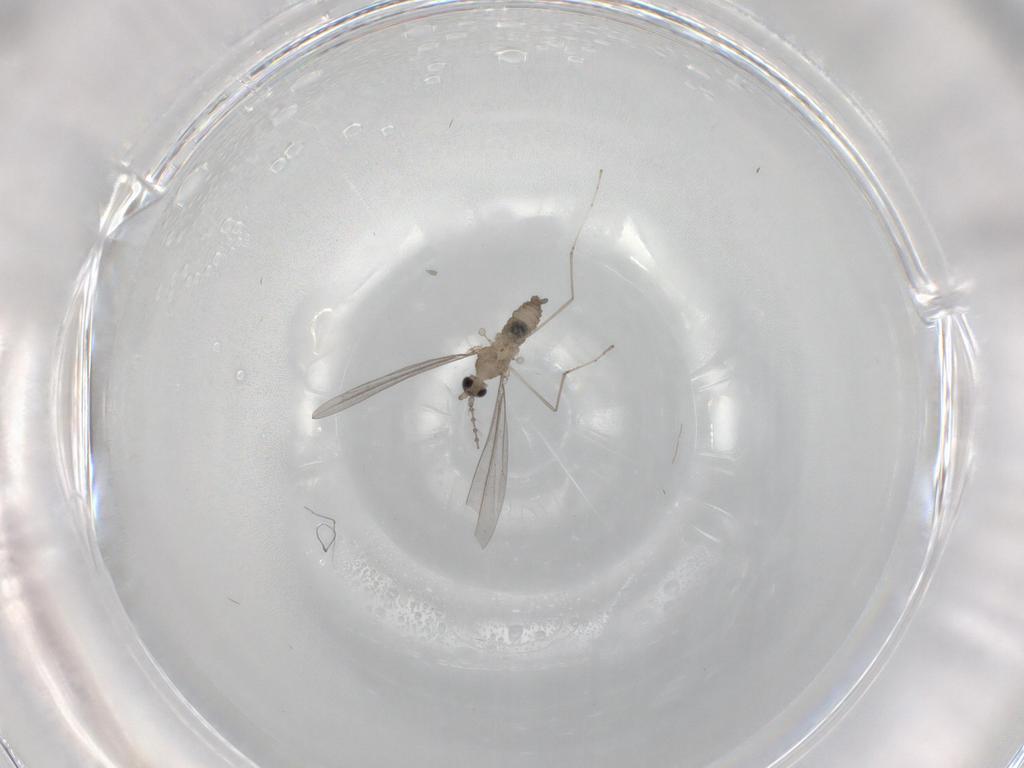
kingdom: Animalia
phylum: Arthropoda
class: Insecta
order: Diptera
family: Cecidomyiidae
